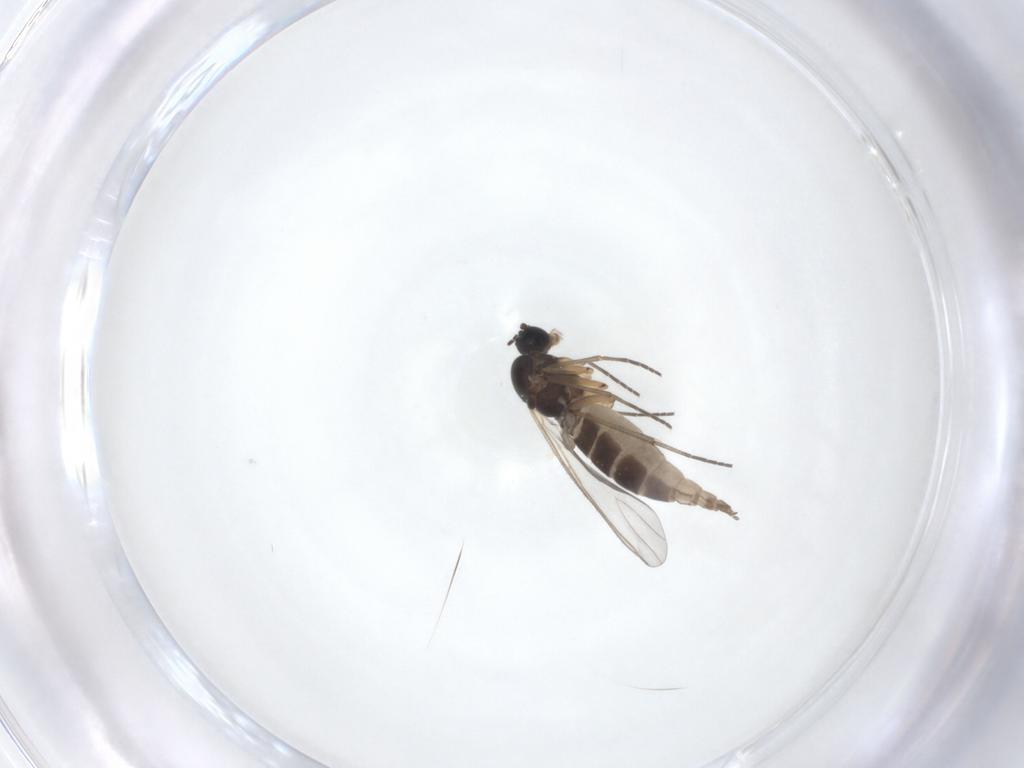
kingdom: Animalia
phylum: Arthropoda
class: Insecta
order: Diptera
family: Sciaridae
